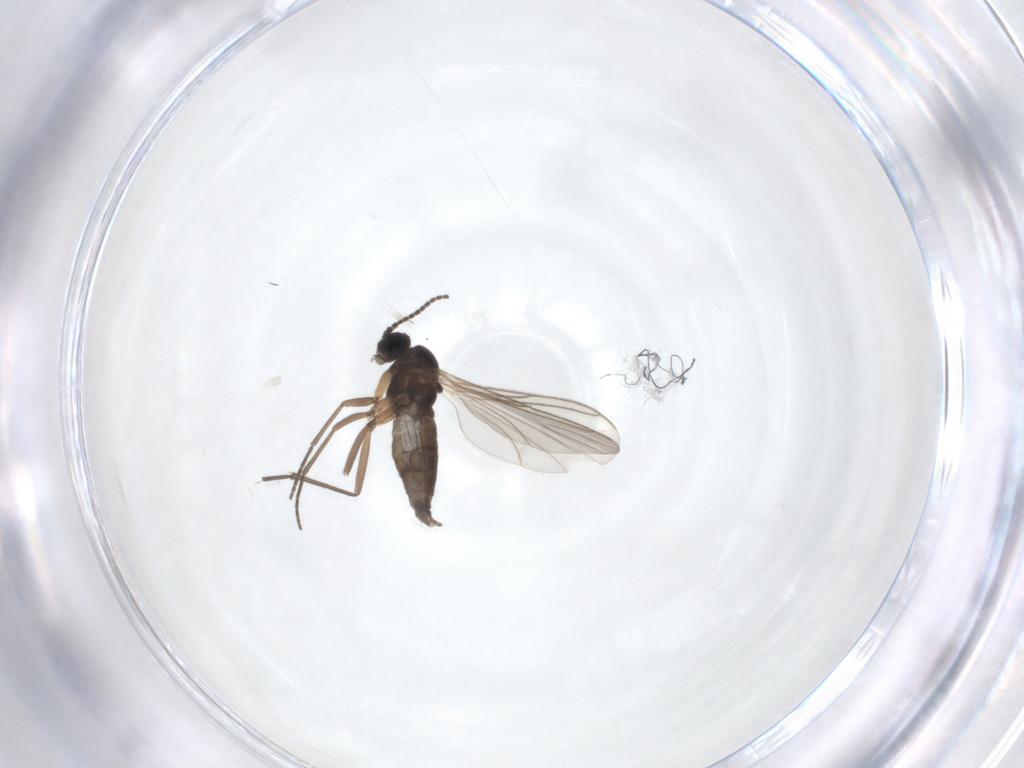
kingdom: Animalia
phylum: Arthropoda
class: Insecta
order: Diptera
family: Sciaridae
